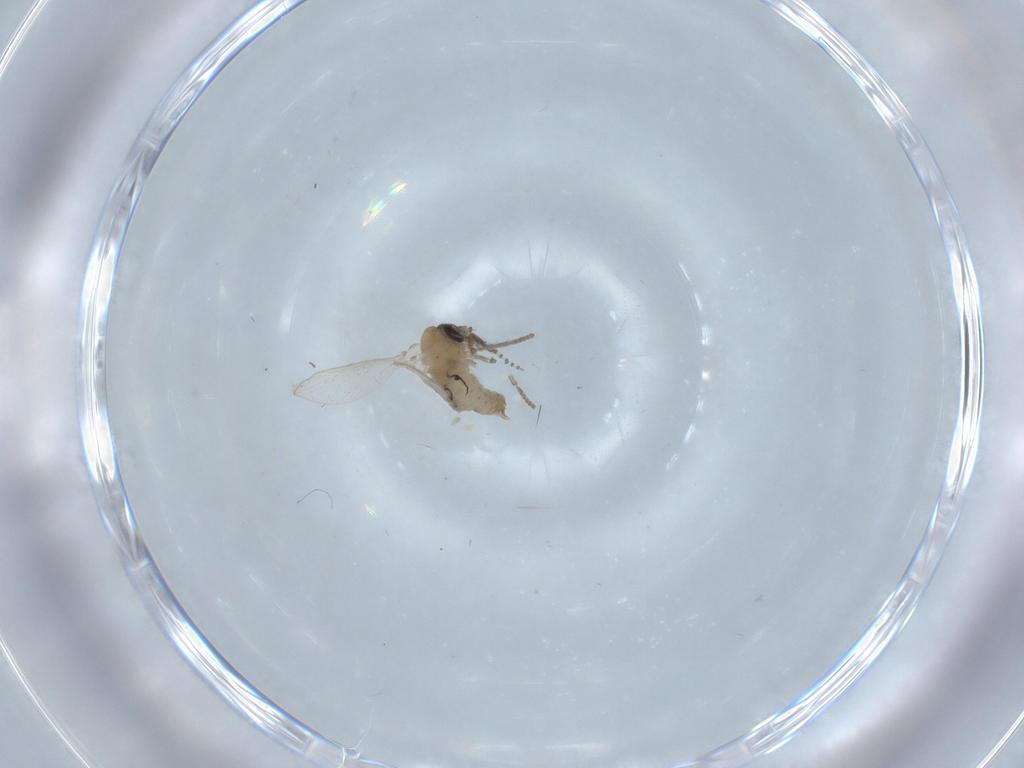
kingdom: Animalia
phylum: Arthropoda
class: Insecta
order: Diptera
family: Psychodidae
